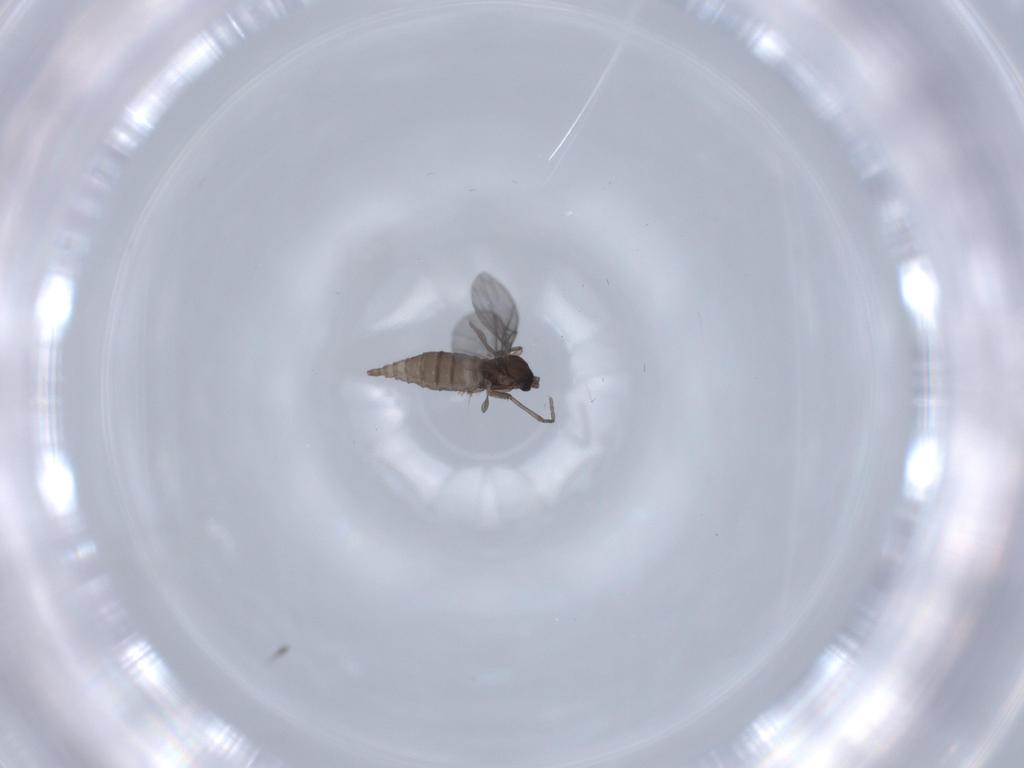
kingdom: Animalia
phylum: Arthropoda
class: Insecta
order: Diptera
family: Sciaridae
